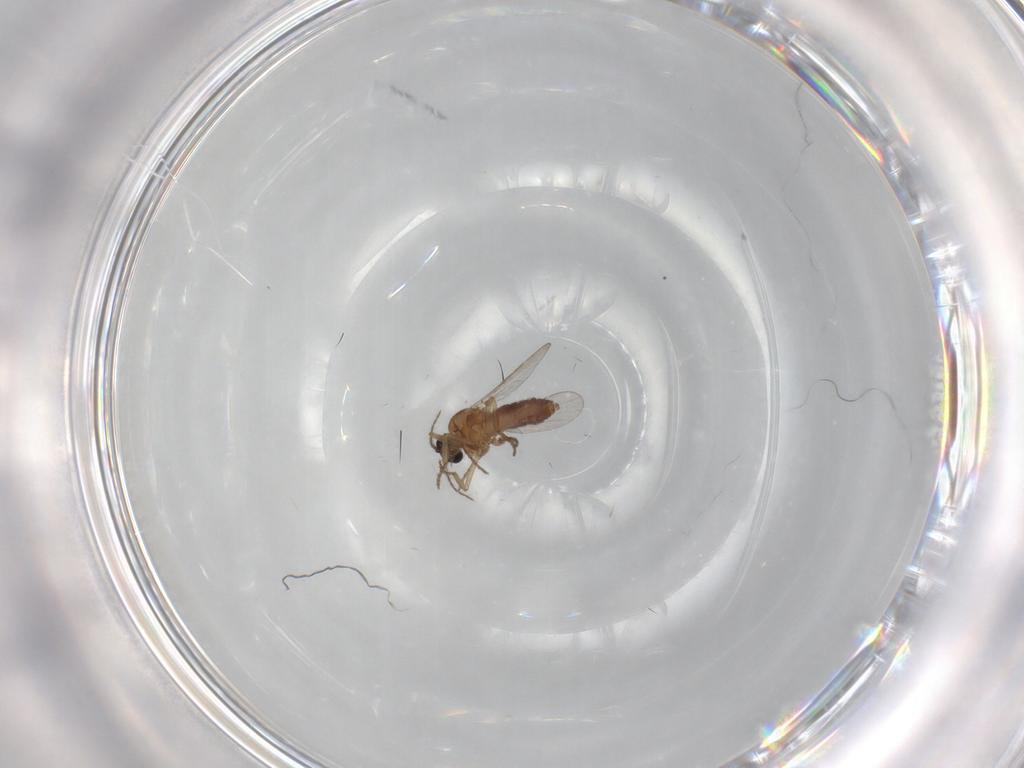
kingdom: Animalia
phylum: Arthropoda
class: Insecta
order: Diptera
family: Ceratopogonidae
